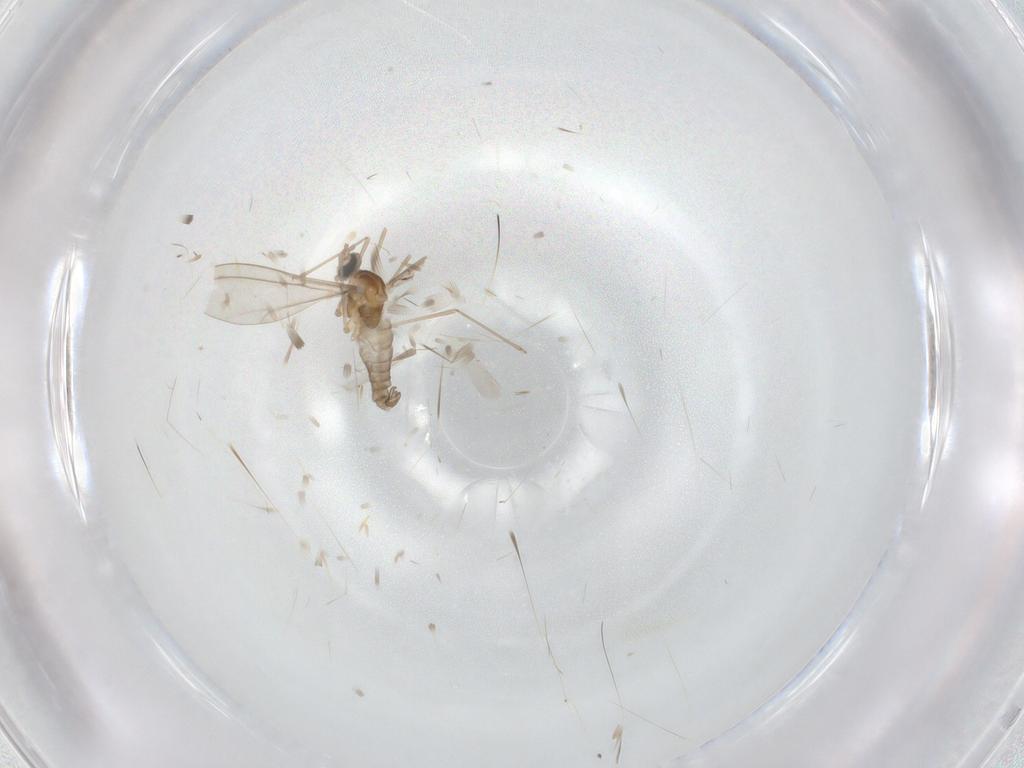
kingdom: Animalia
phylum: Arthropoda
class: Insecta
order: Diptera
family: Cecidomyiidae
